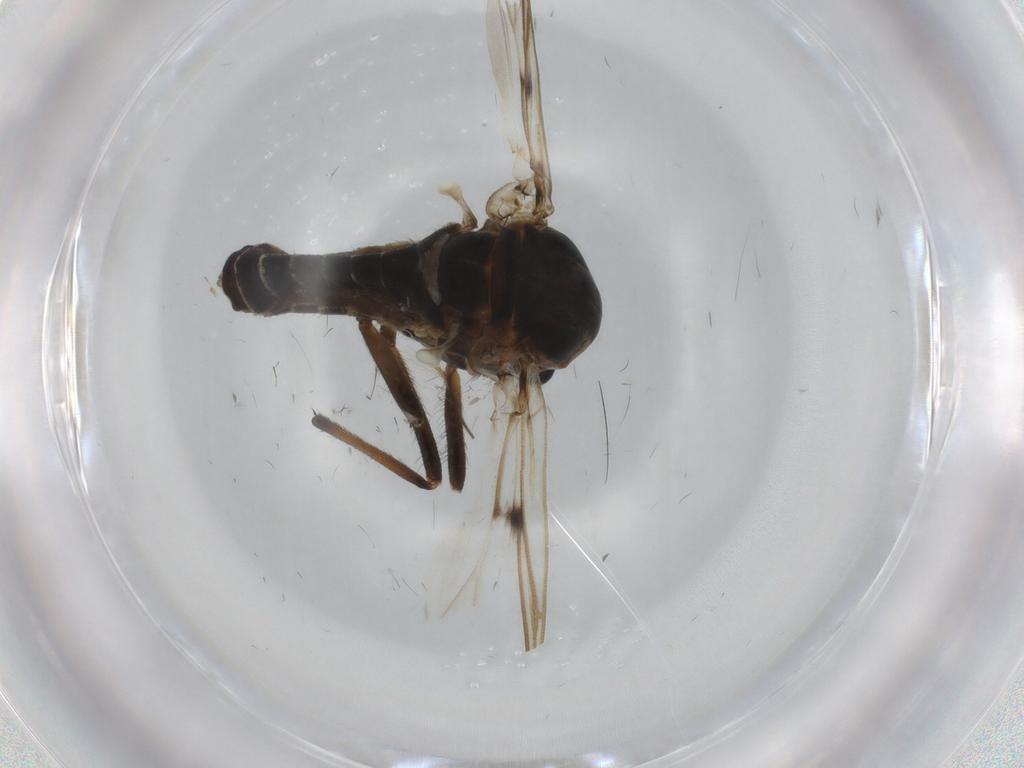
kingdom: Animalia
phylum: Arthropoda
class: Insecta
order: Diptera
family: Chironomidae
